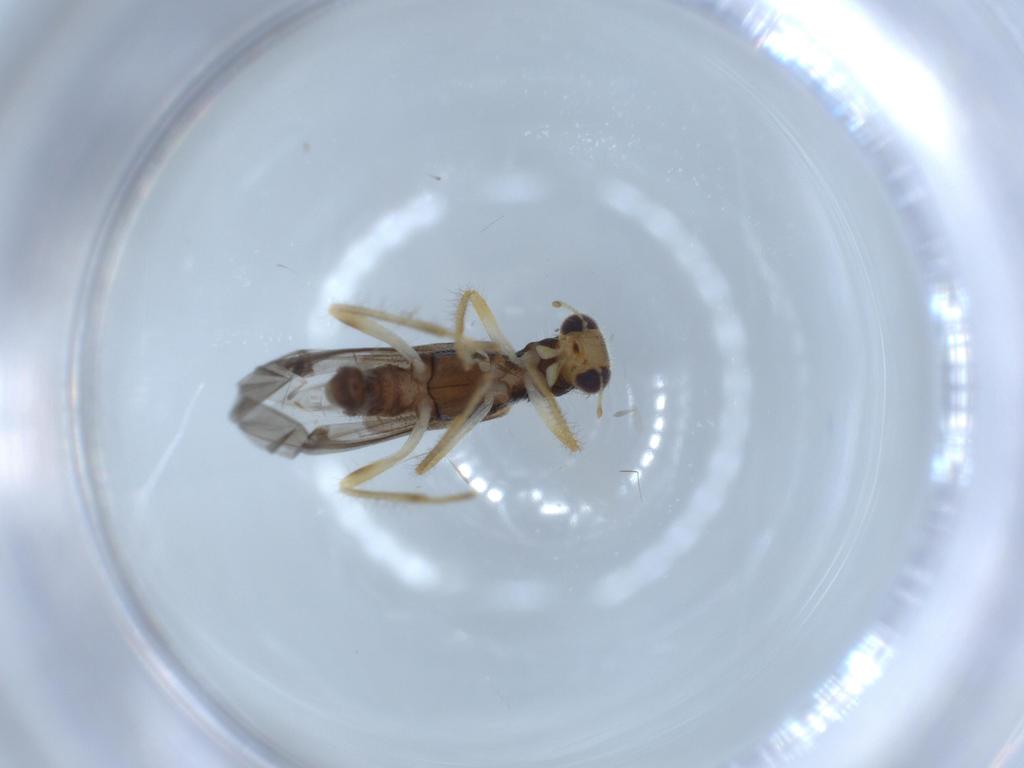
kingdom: Animalia
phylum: Arthropoda
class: Insecta
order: Coleoptera
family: Cleridae
